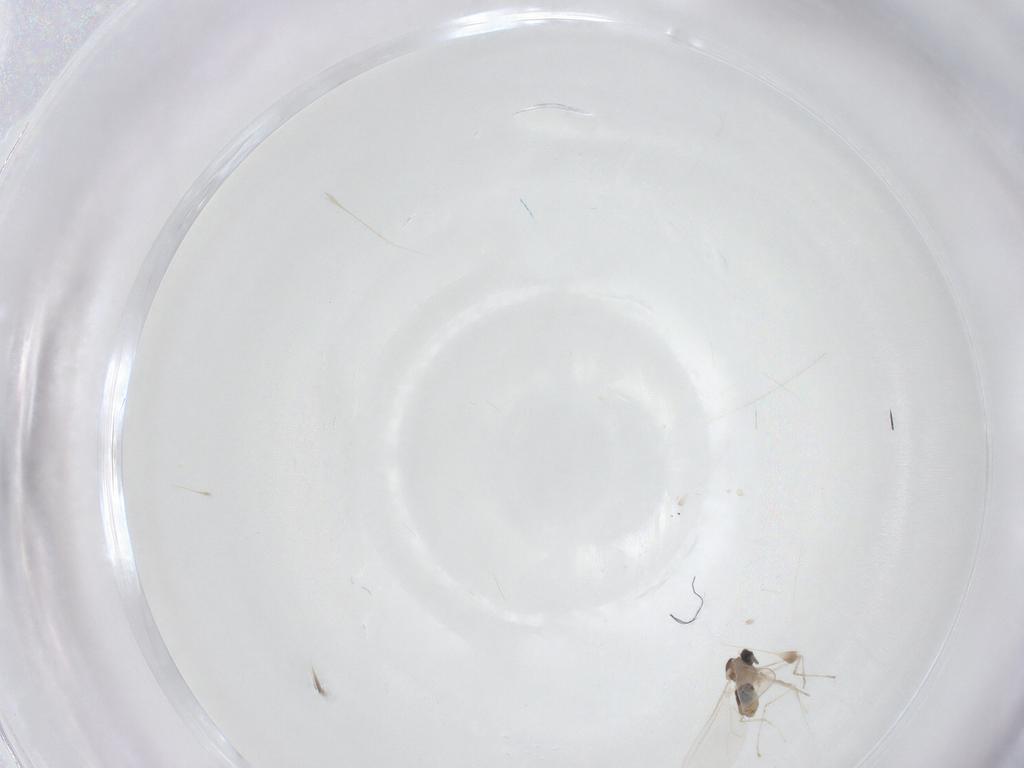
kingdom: Animalia
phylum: Arthropoda
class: Insecta
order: Diptera
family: Cecidomyiidae
